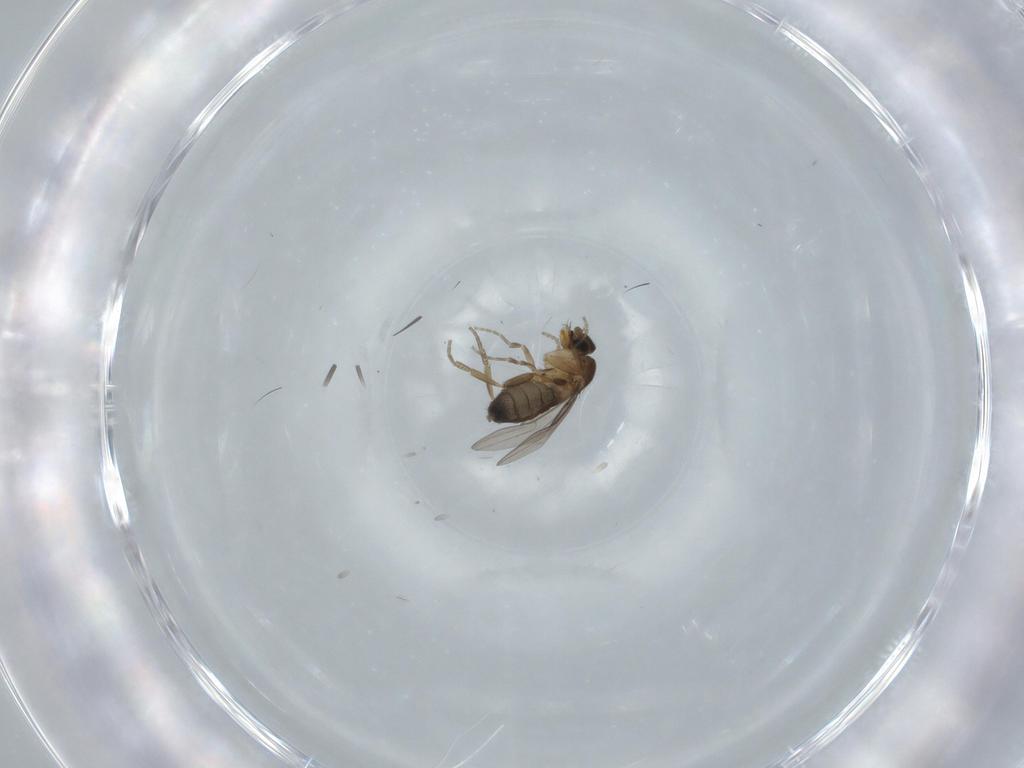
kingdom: Animalia
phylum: Arthropoda
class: Insecta
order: Diptera
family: Phoridae
